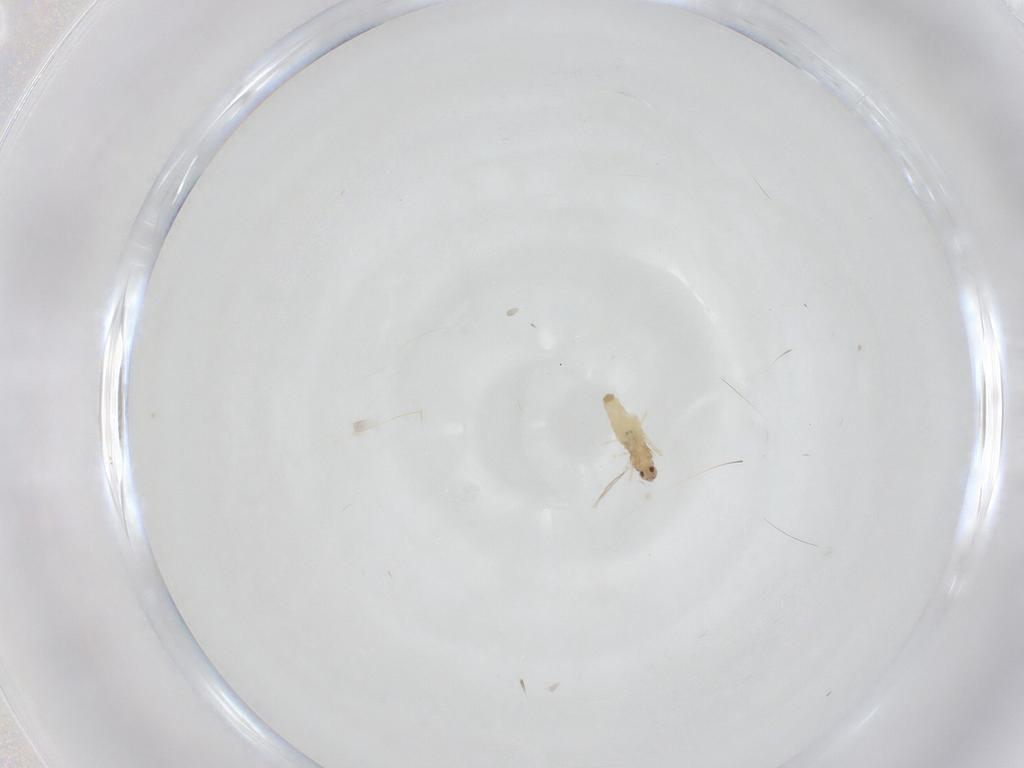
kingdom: Animalia
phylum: Arthropoda
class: Insecta
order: Diptera
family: Cecidomyiidae
